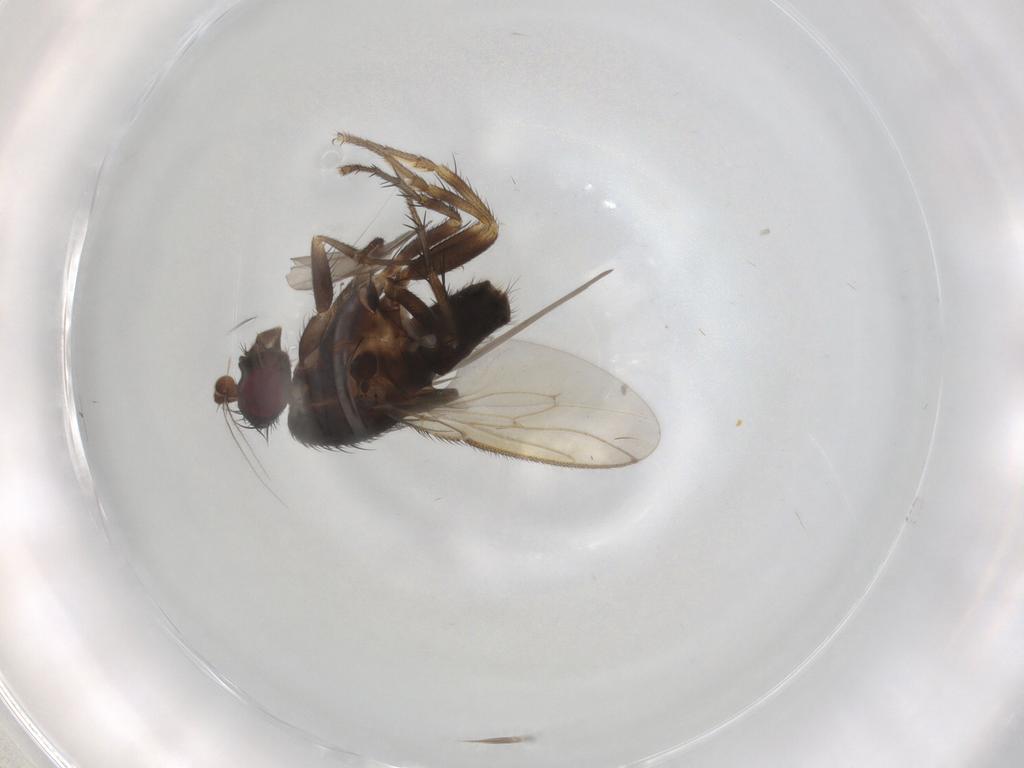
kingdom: Animalia
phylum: Arthropoda
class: Insecta
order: Diptera
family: Sphaeroceridae
